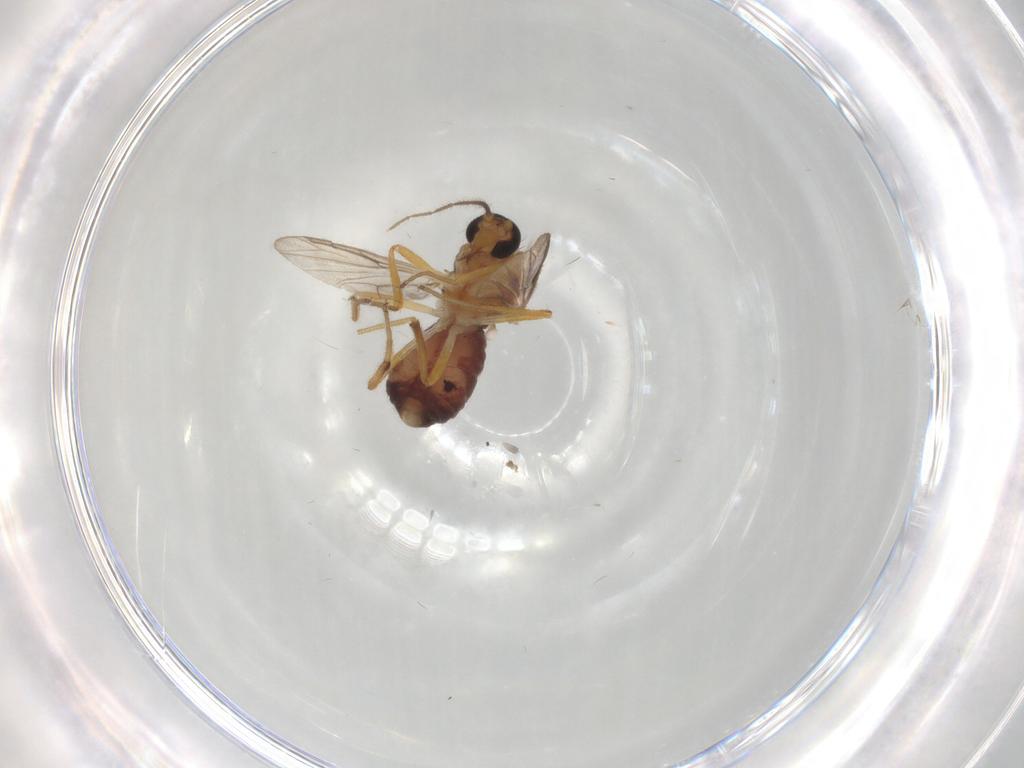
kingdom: Animalia
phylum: Arthropoda
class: Insecta
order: Diptera
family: Ceratopogonidae
